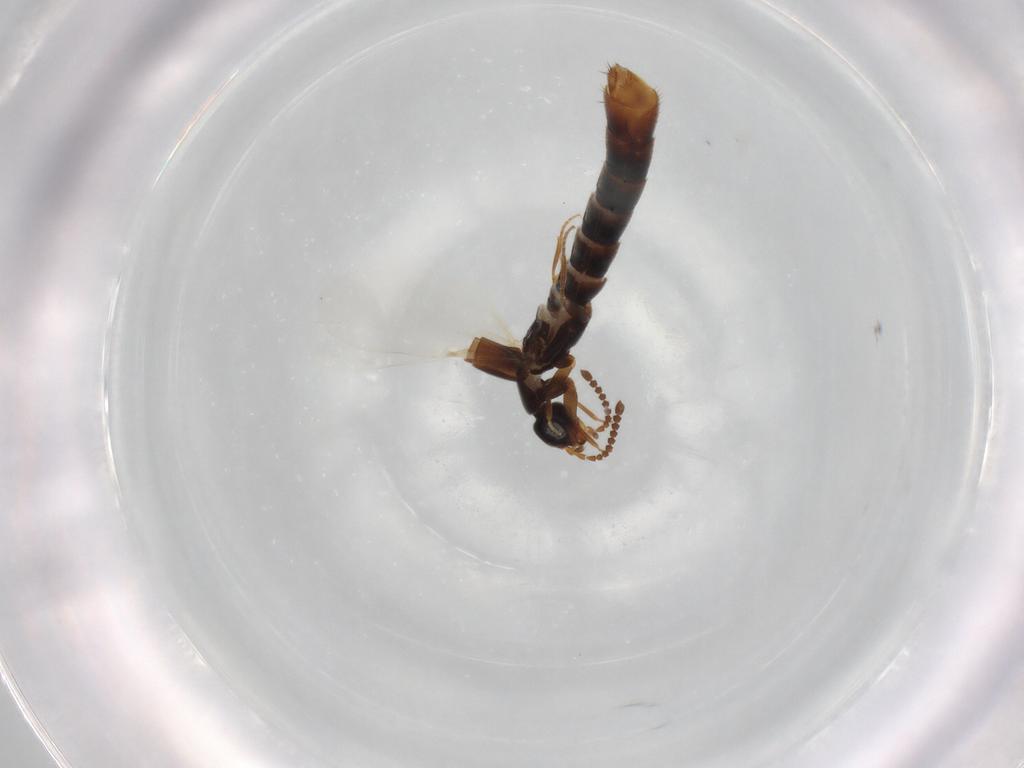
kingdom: Animalia
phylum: Arthropoda
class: Insecta
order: Coleoptera
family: Staphylinidae
